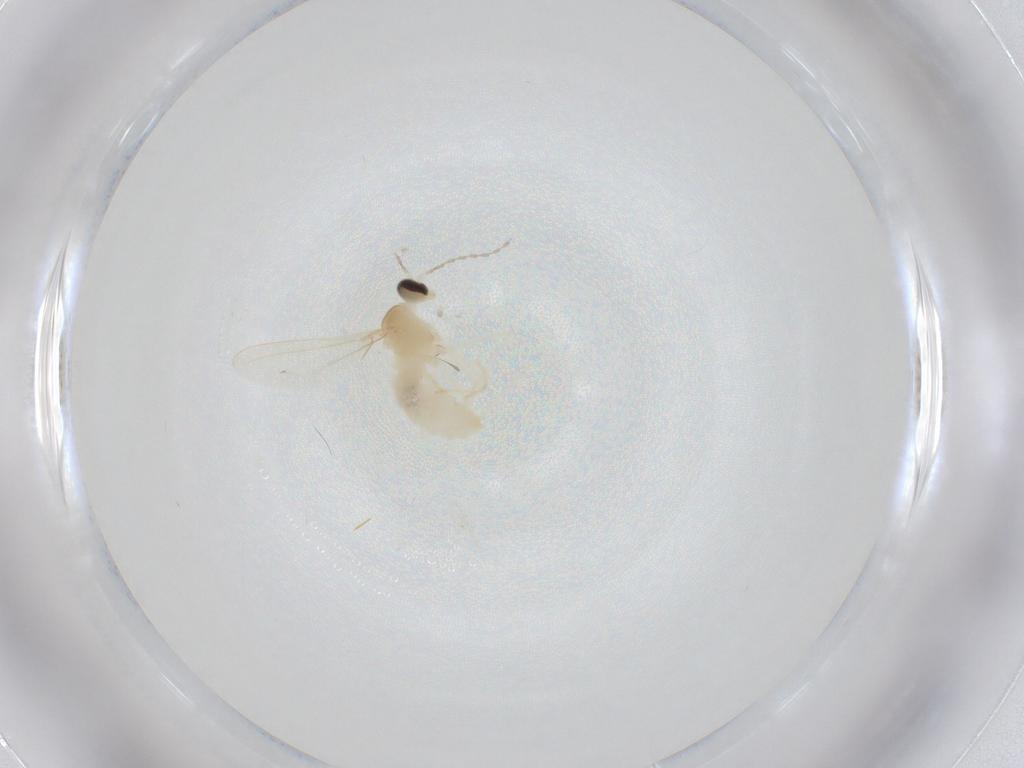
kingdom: Animalia
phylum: Arthropoda
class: Insecta
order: Diptera
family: Cecidomyiidae
